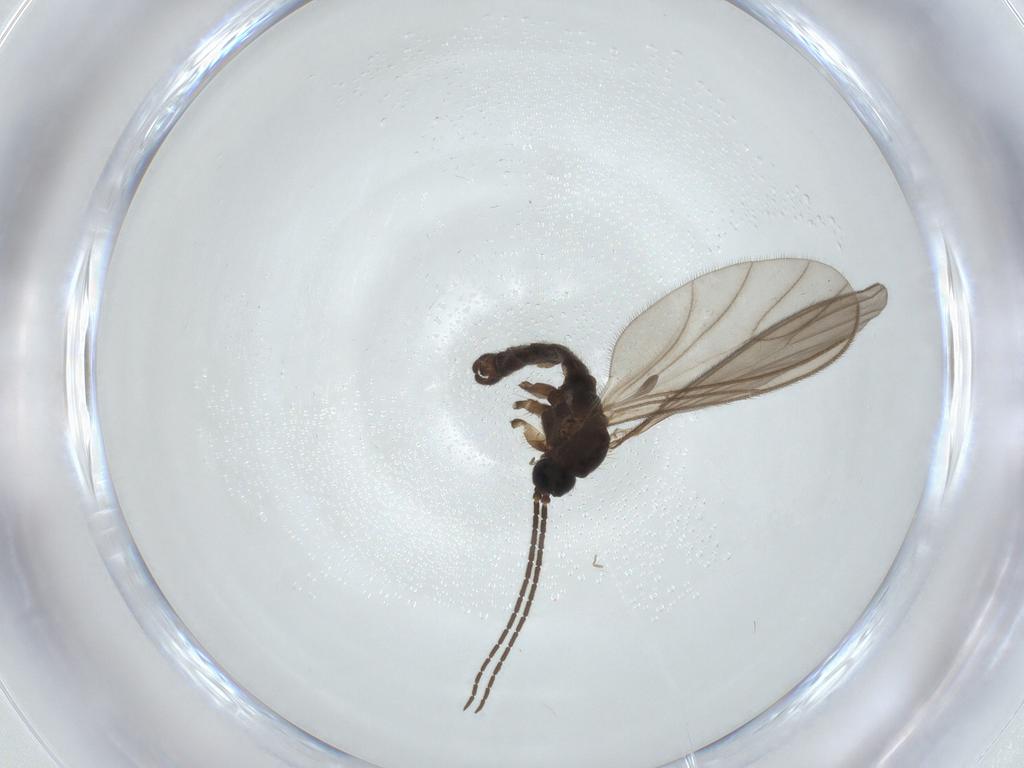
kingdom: Animalia
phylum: Arthropoda
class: Insecta
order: Diptera
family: Sciaridae
